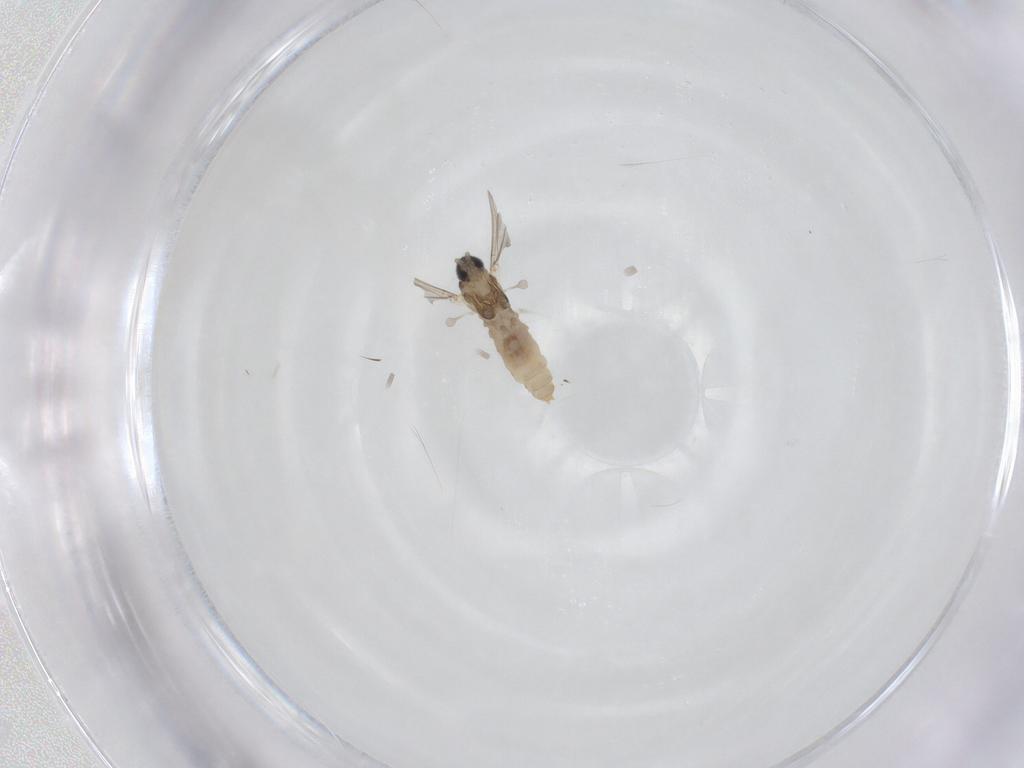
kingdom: Animalia
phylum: Arthropoda
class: Insecta
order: Diptera
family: Cecidomyiidae
